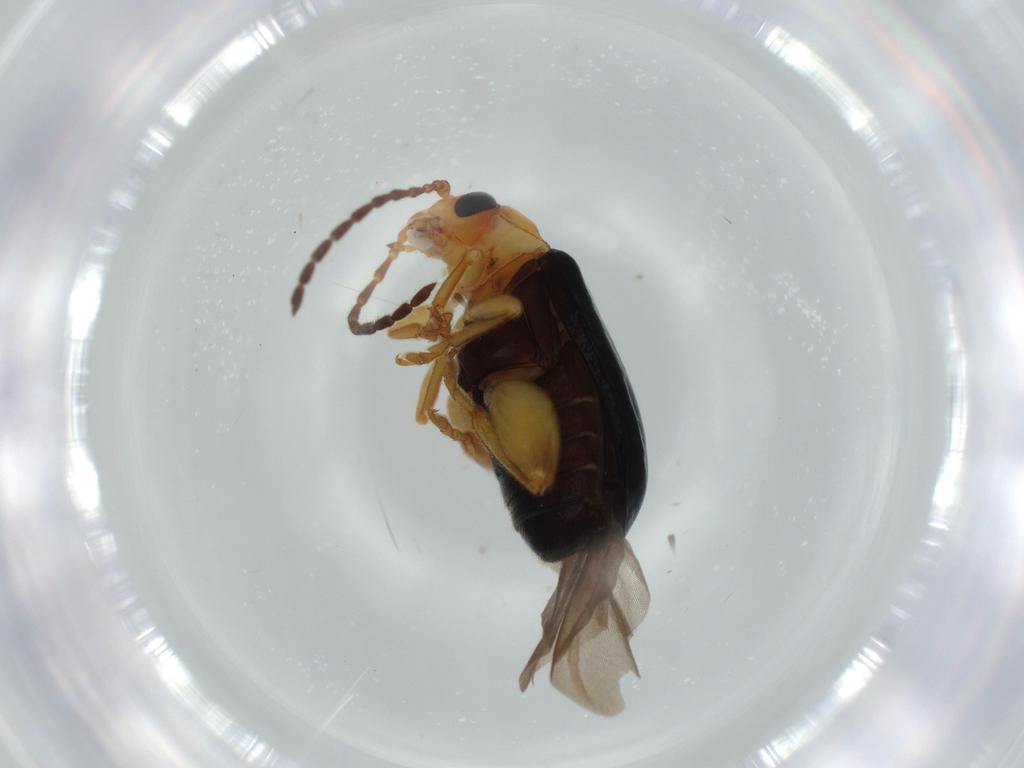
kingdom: Animalia
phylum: Arthropoda
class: Insecta
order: Coleoptera
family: Chrysomelidae
